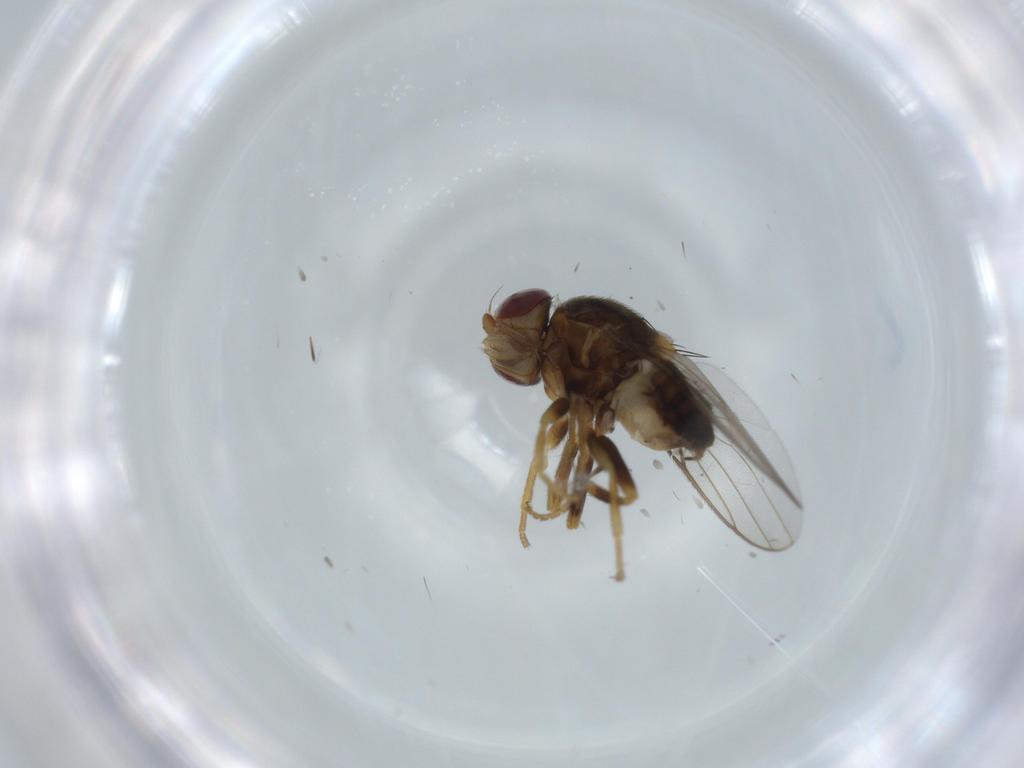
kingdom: Animalia
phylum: Arthropoda
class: Insecta
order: Diptera
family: Chloropidae
